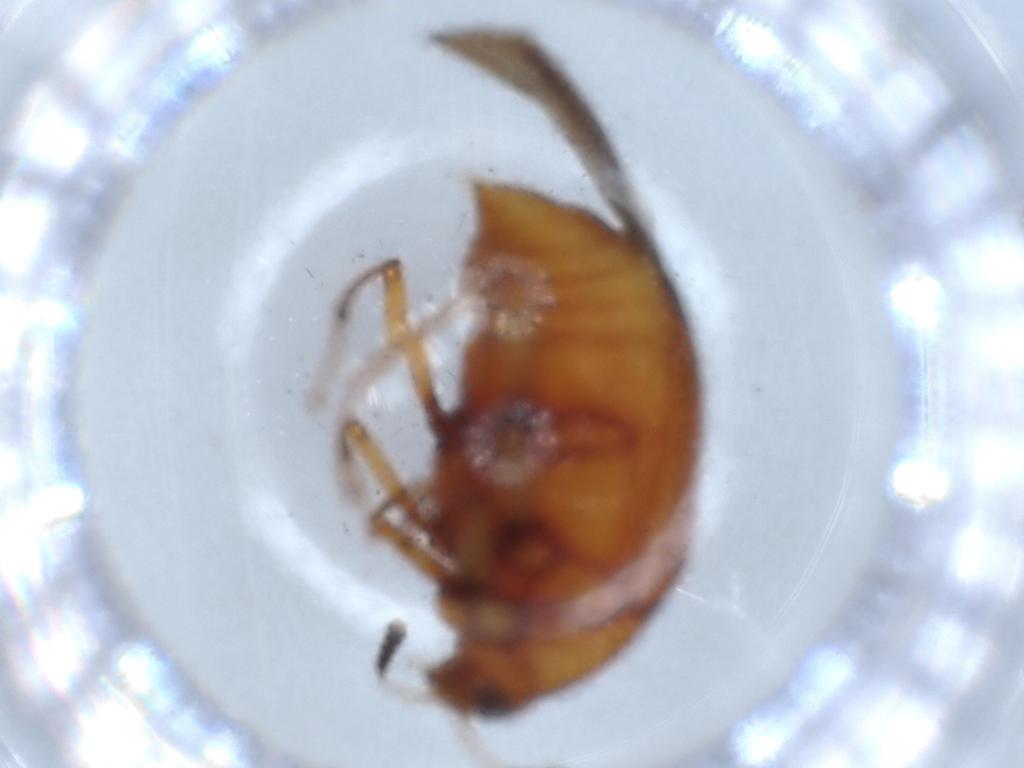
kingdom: Animalia
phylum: Arthropoda
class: Insecta
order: Coleoptera
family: Staphylinidae
